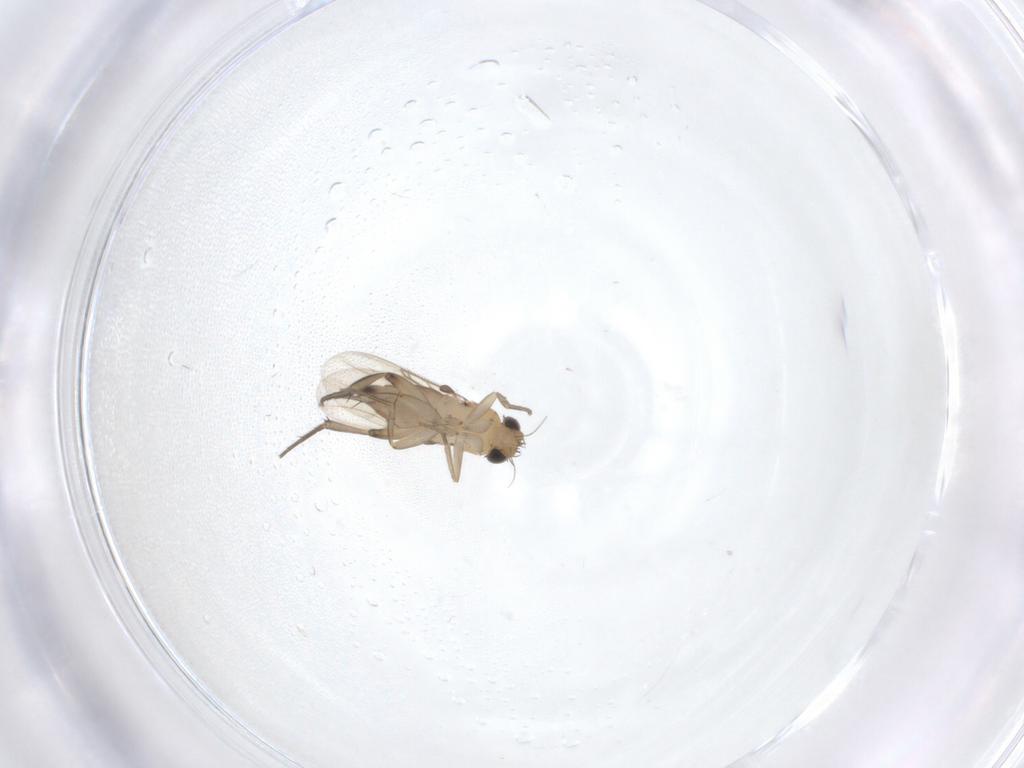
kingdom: Animalia
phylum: Arthropoda
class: Insecta
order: Diptera
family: Phoridae
